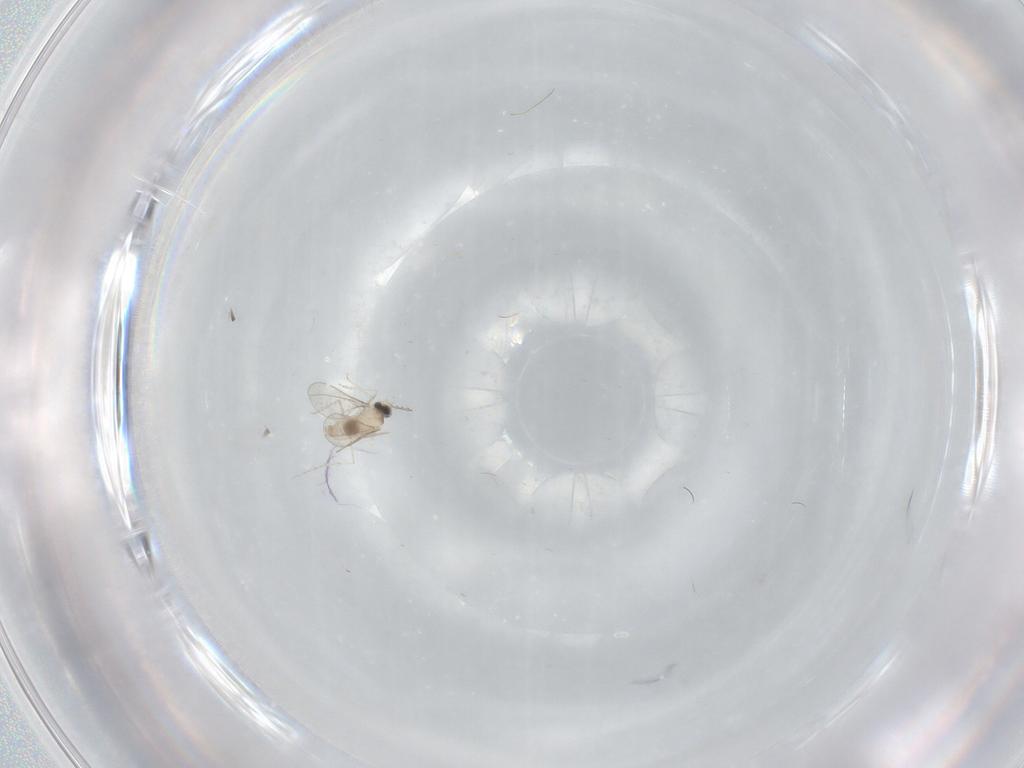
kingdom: Animalia
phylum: Arthropoda
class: Insecta
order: Diptera
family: Cecidomyiidae
